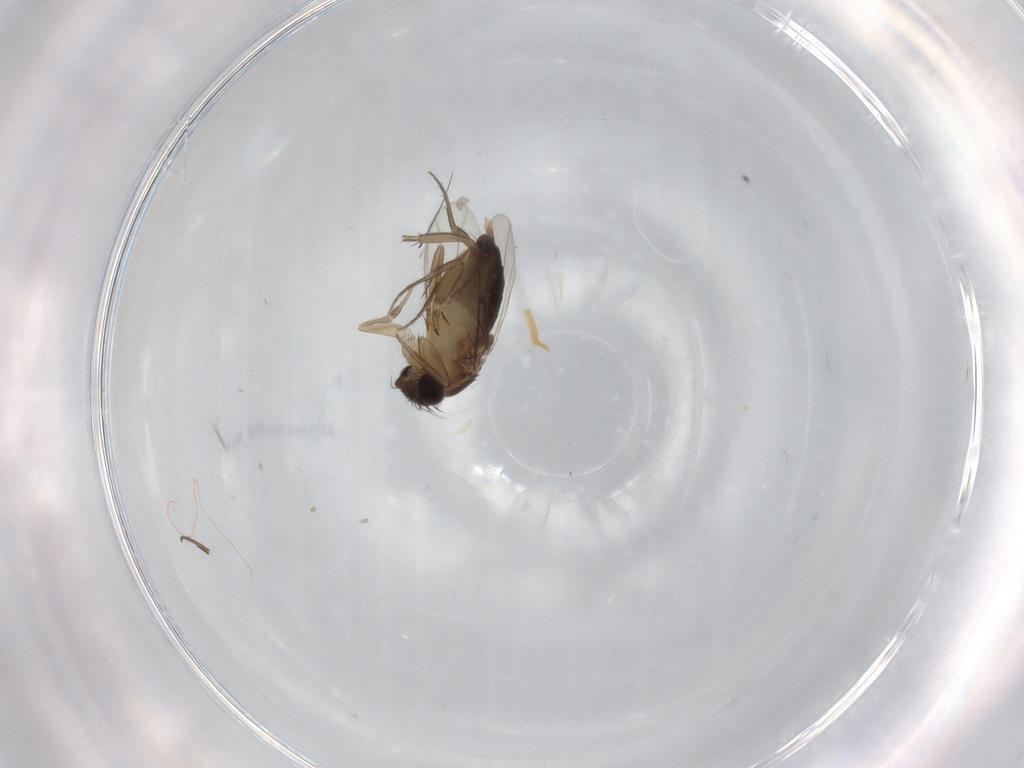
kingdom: Animalia
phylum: Arthropoda
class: Insecta
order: Diptera
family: Phoridae
